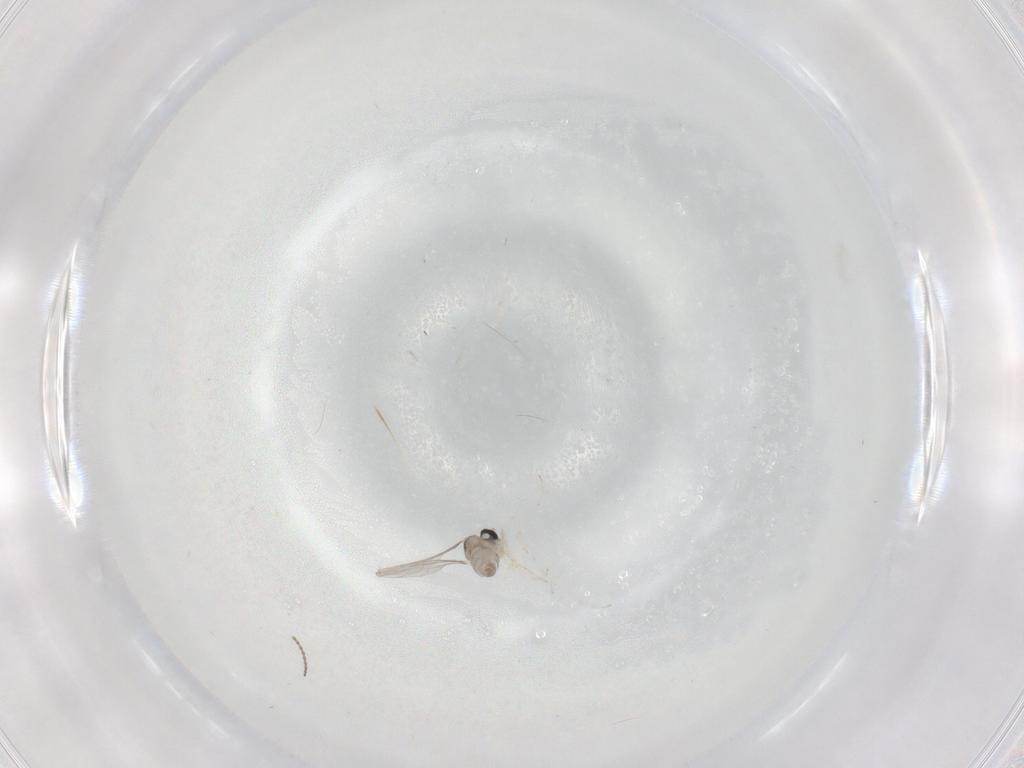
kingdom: Animalia
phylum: Arthropoda
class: Insecta
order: Diptera
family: Cecidomyiidae
